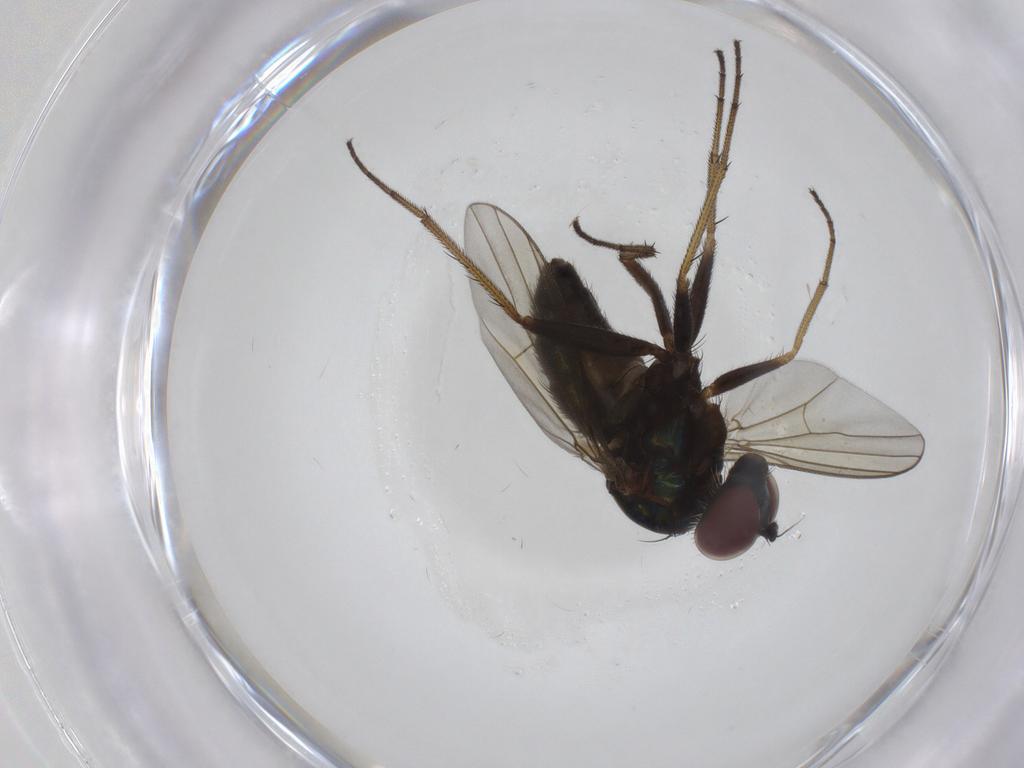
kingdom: Animalia
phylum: Arthropoda
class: Insecta
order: Diptera
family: Dolichopodidae
